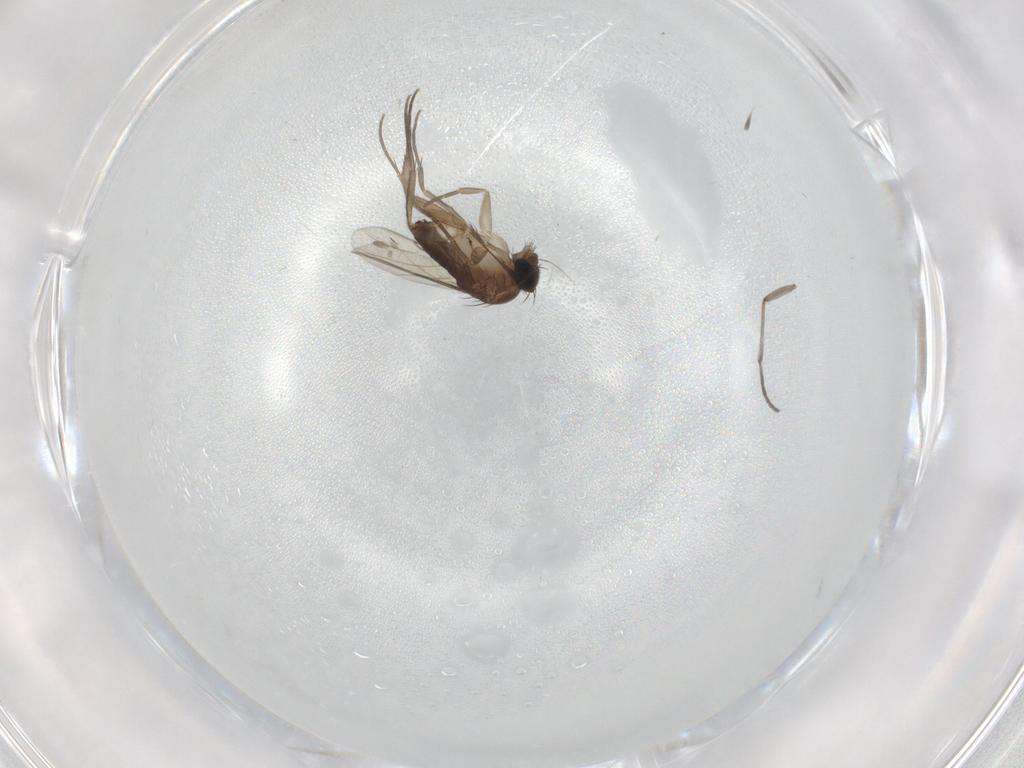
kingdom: Animalia
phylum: Arthropoda
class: Insecta
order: Diptera
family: Phoridae
